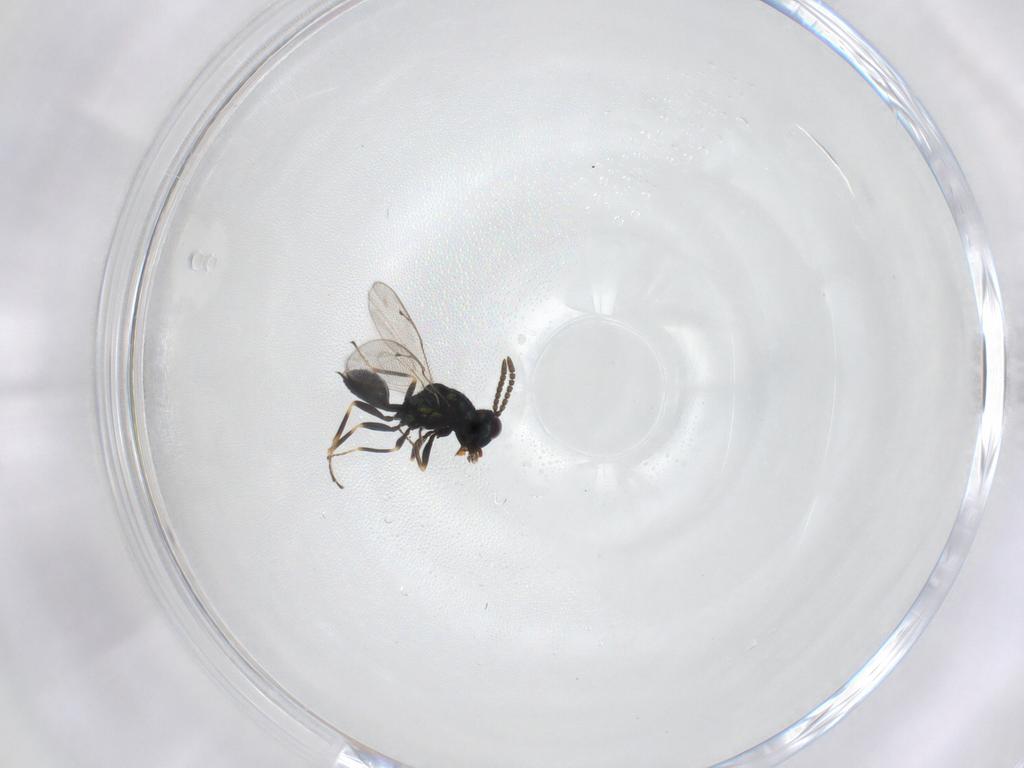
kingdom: Animalia
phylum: Arthropoda
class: Insecta
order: Hymenoptera
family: Pteromalidae
